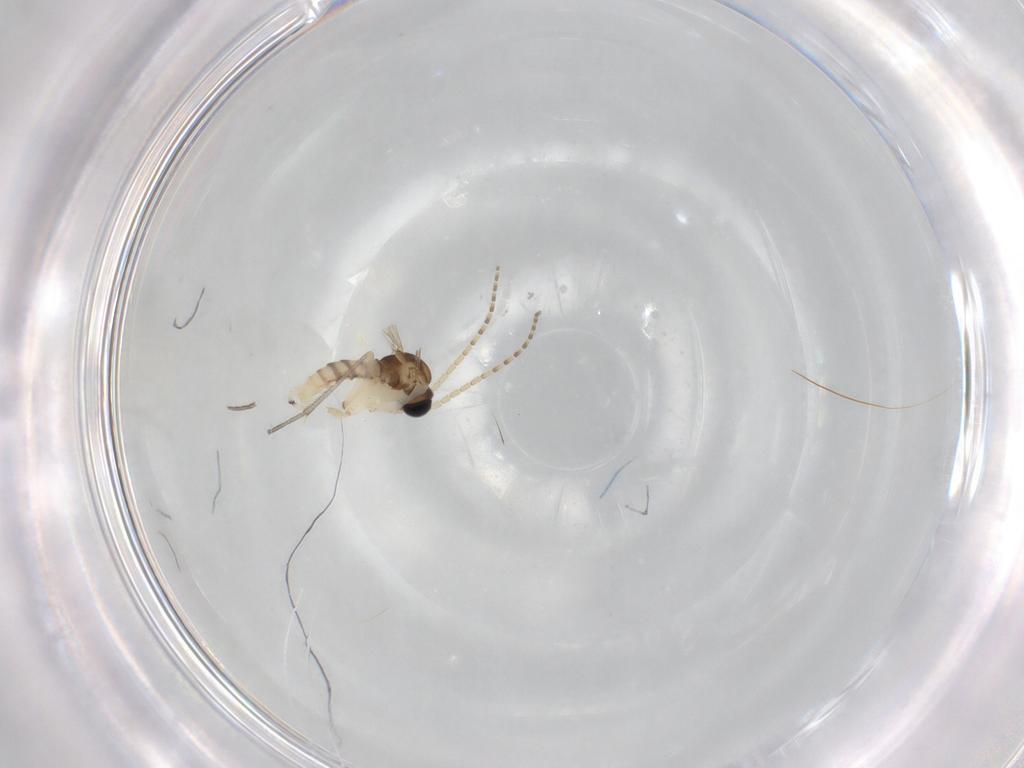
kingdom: Animalia
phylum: Arthropoda
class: Insecta
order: Diptera
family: Sciaridae
